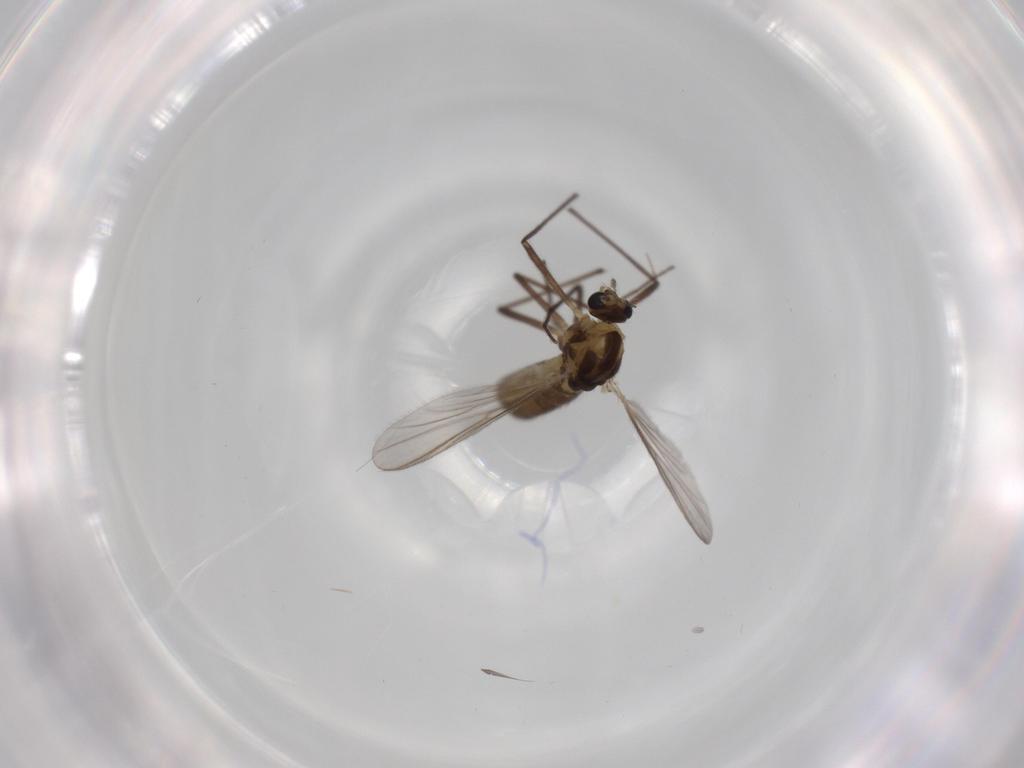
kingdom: Animalia
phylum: Arthropoda
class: Insecta
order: Diptera
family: Chironomidae
